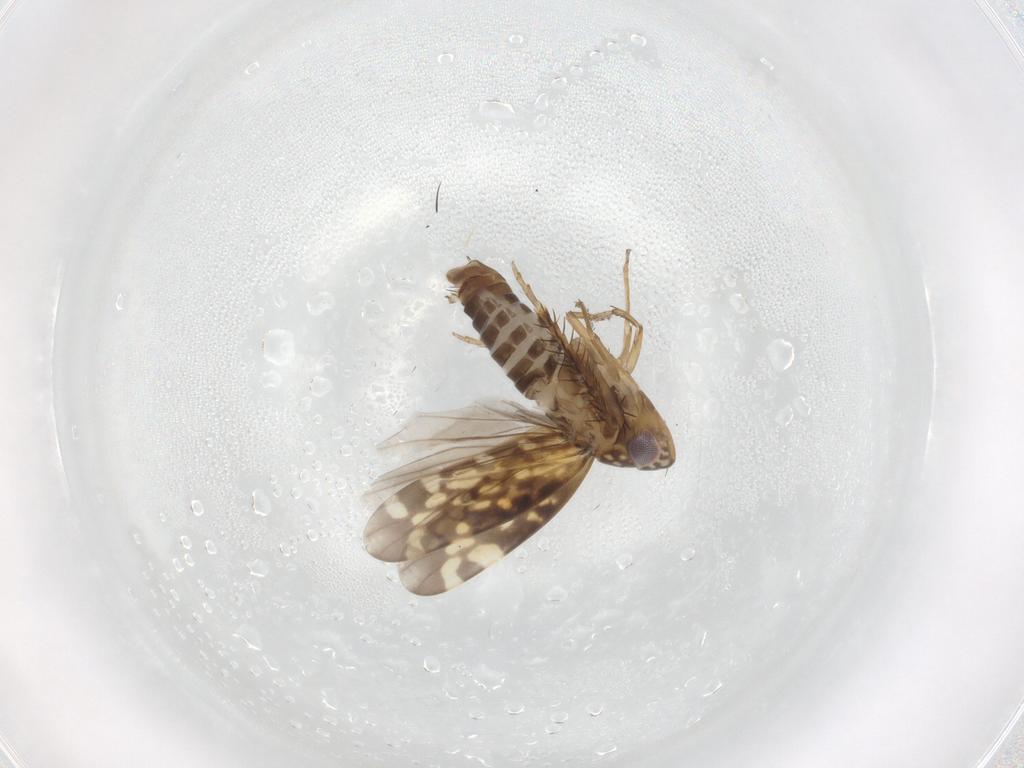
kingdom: Animalia
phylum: Arthropoda
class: Insecta
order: Hemiptera
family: Cicadellidae
